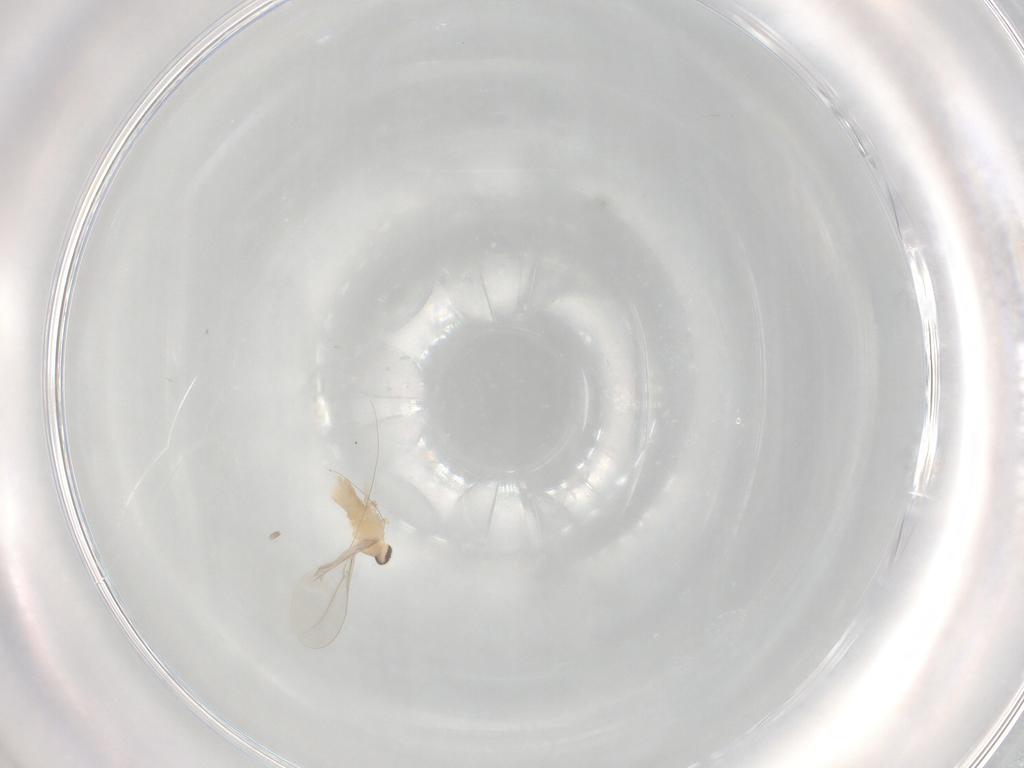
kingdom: Animalia
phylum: Arthropoda
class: Insecta
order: Diptera
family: Cecidomyiidae
